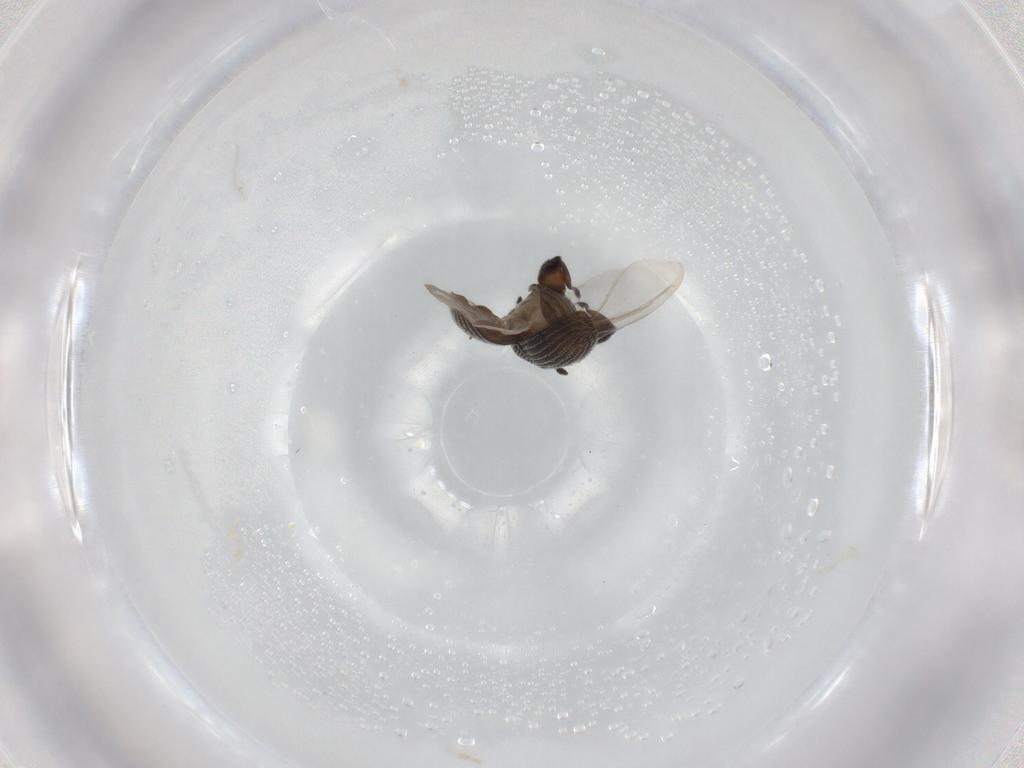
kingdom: Animalia
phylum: Arthropoda
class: Insecta
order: Coleoptera
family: Curculionidae
